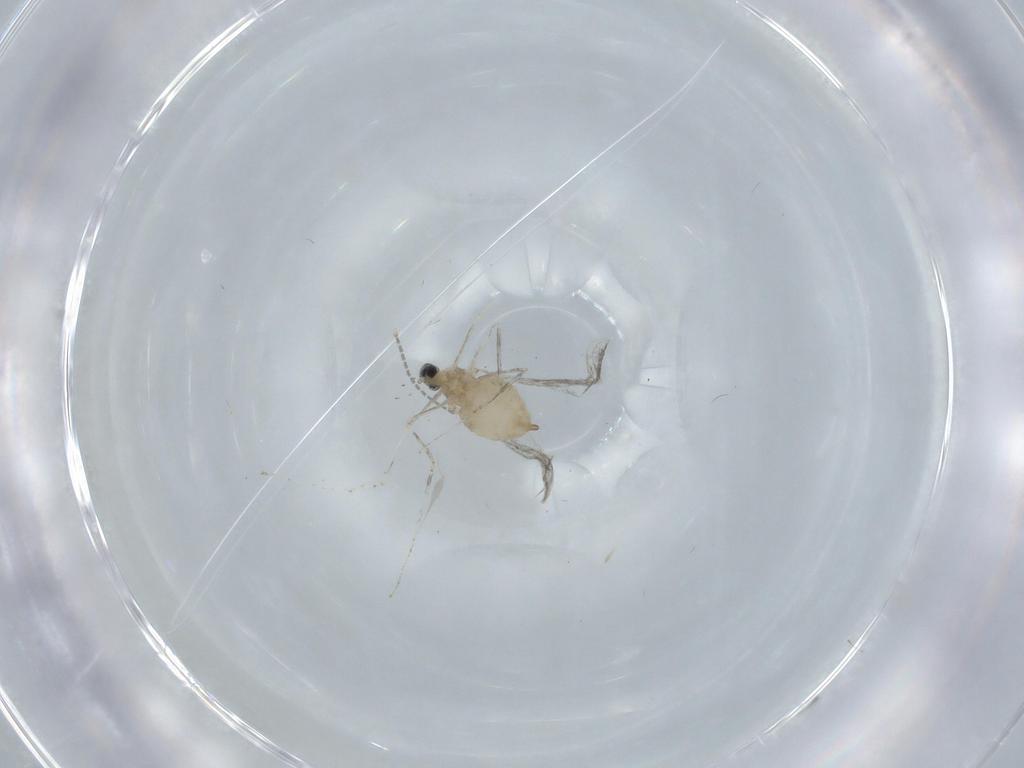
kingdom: Animalia
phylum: Arthropoda
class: Insecta
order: Diptera
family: Cecidomyiidae
